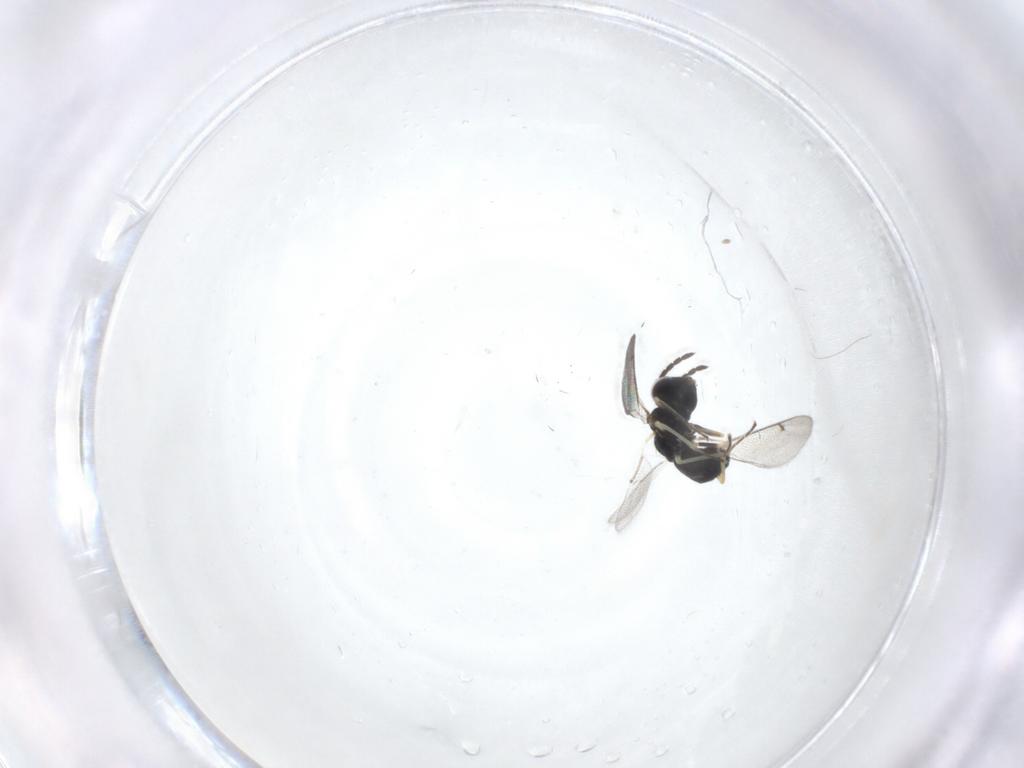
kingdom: Animalia
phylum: Arthropoda
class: Insecta
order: Hymenoptera
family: Eulophidae
